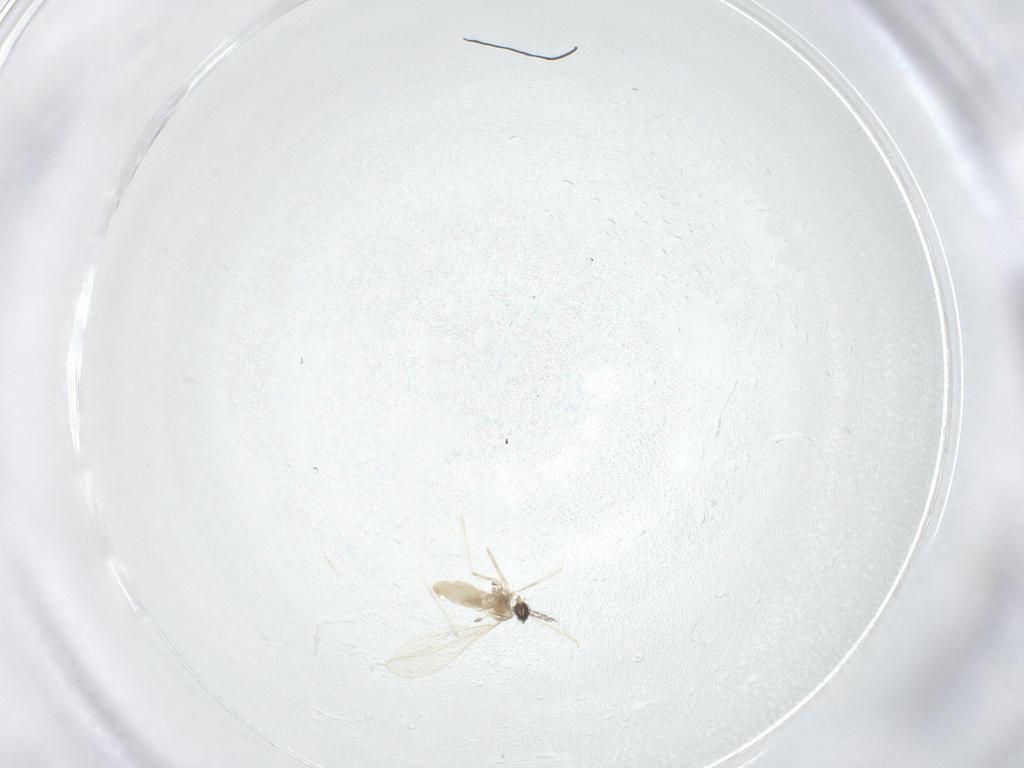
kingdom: Animalia
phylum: Arthropoda
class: Insecta
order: Diptera
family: Cecidomyiidae
